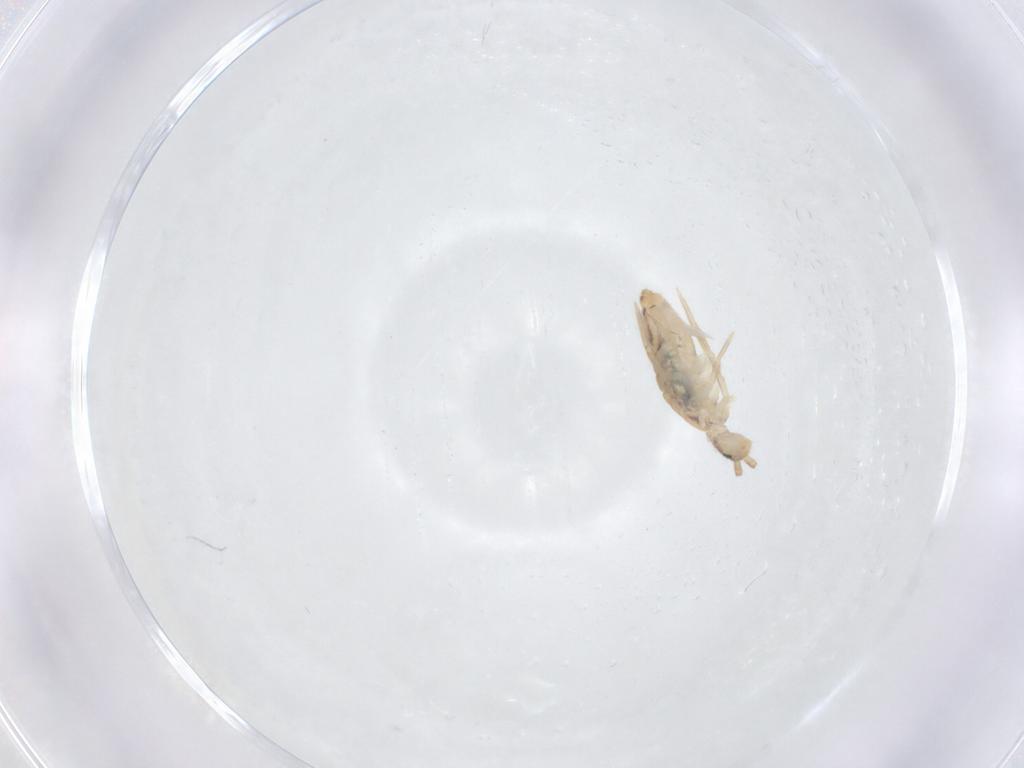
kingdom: Animalia
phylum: Arthropoda
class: Collembola
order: Entomobryomorpha
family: Entomobryidae
